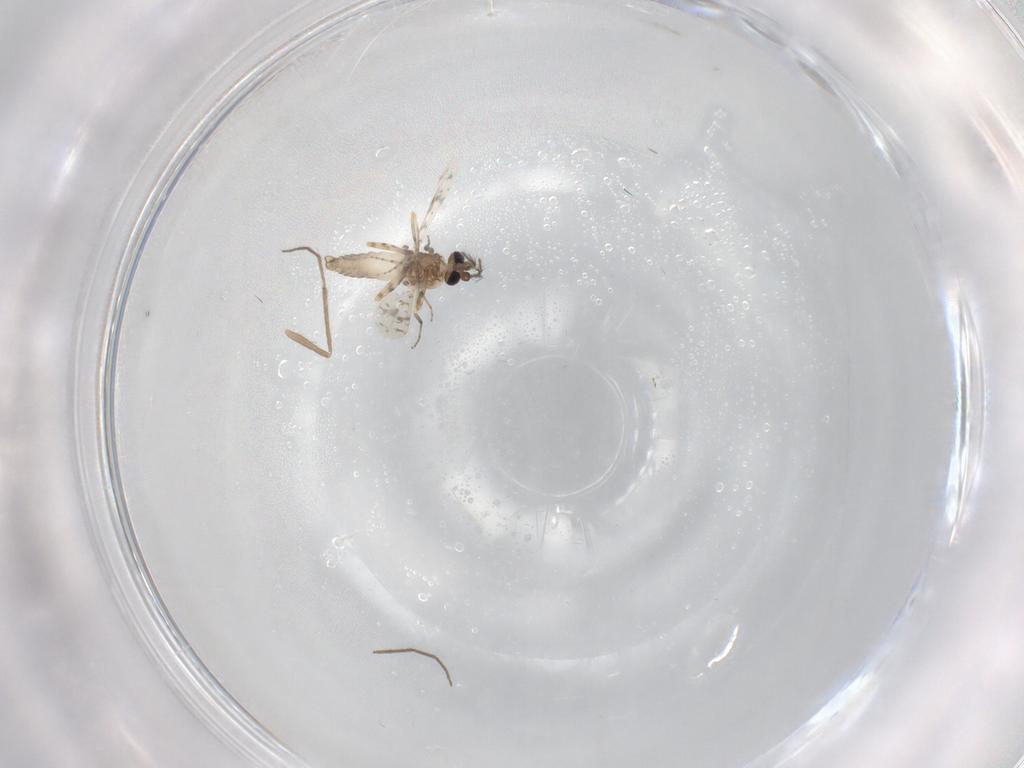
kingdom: Animalia
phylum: Arthropoda
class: Insecta
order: Diptera
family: Ceratopogonidae
